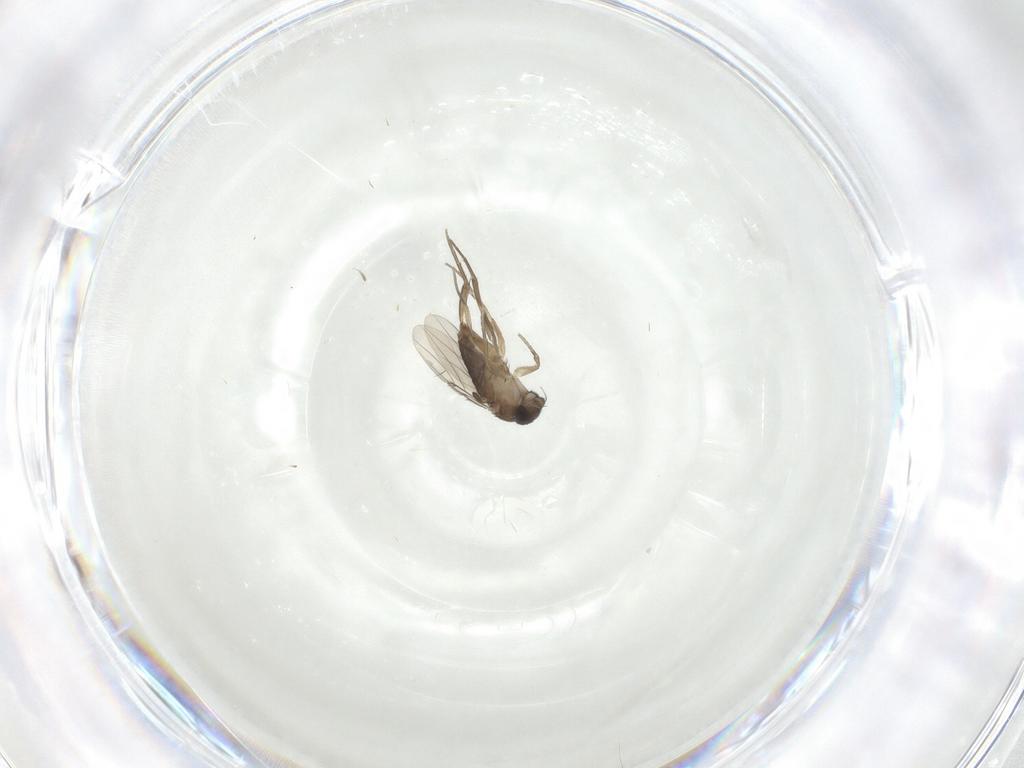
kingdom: Animalia
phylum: Arthropoda
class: Insecta
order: Diptera
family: Phoridae
